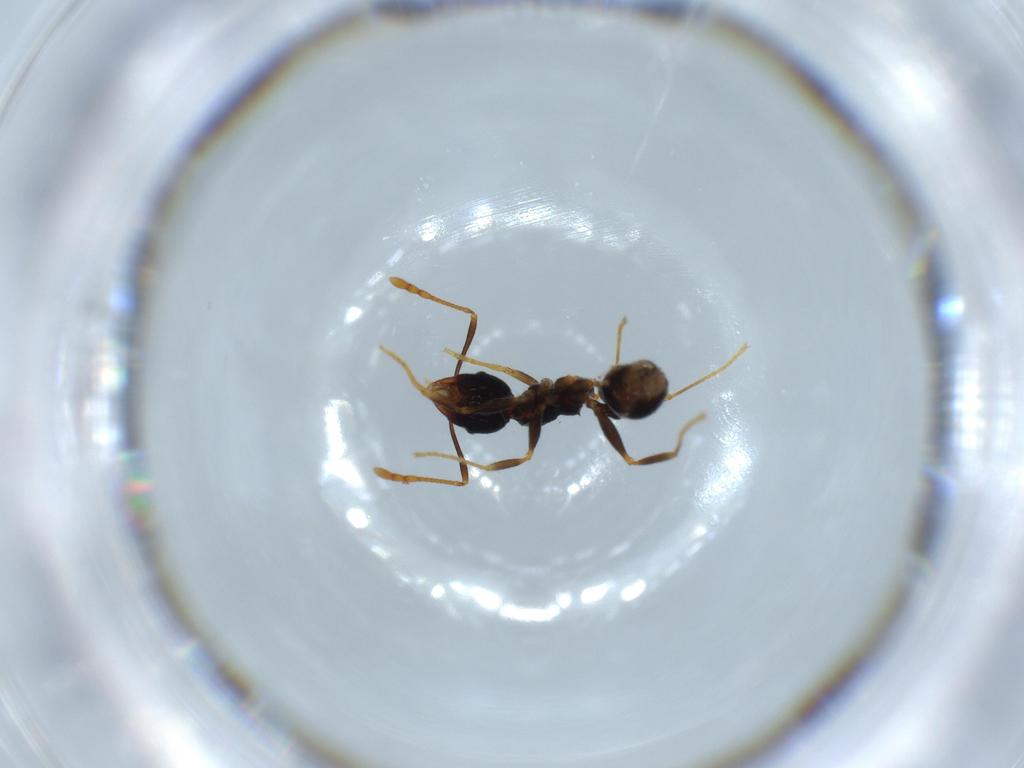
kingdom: Animalia
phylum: Arthropoda
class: Insecta
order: Hymenoptera
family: Formicidae
